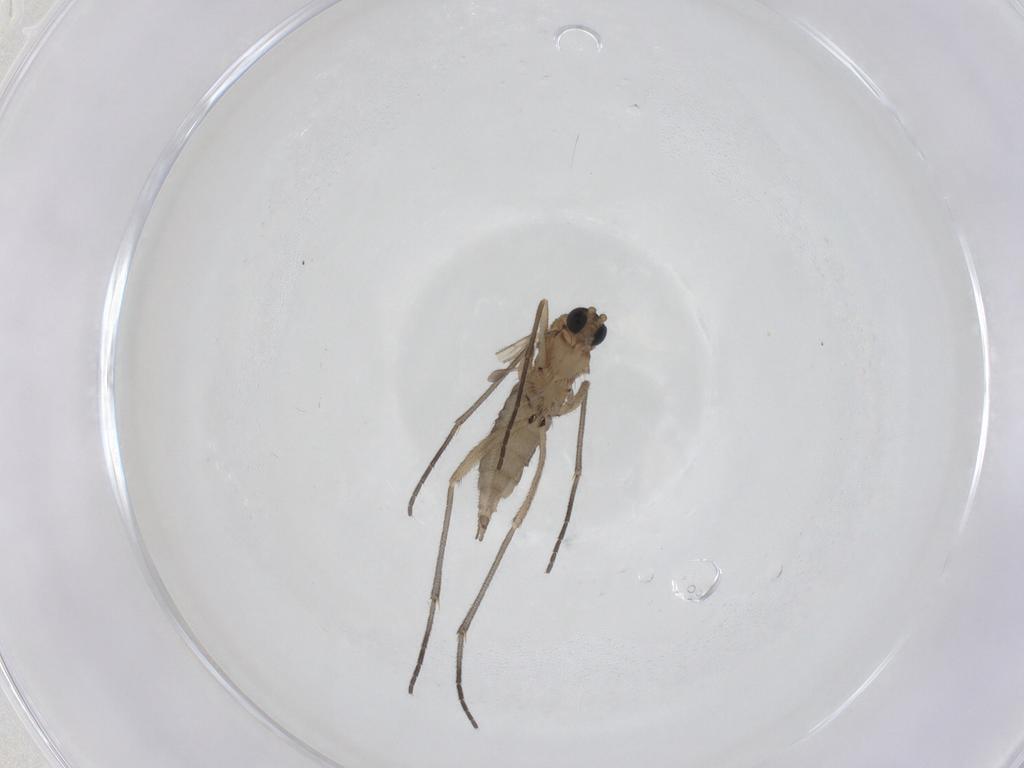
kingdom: Animalia
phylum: Arthropoda
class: Insecta
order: Diptera
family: Sciaridae
